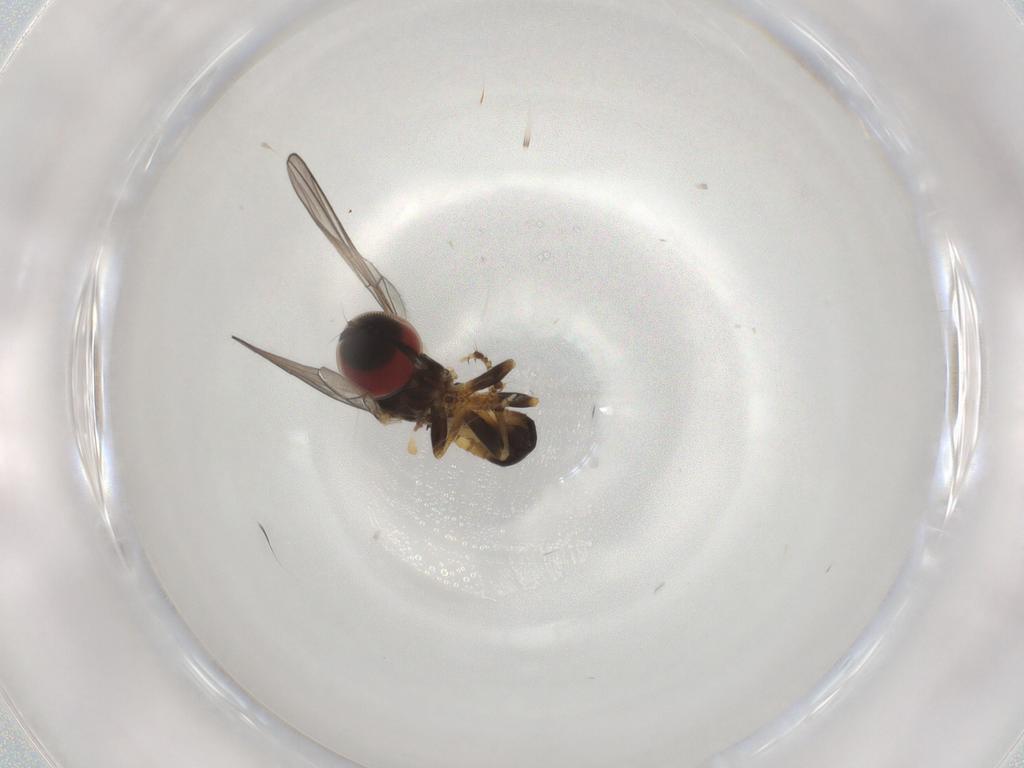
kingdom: Animalia
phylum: Arthropoda
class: Insecta
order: Diptera
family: Pipunculidae
